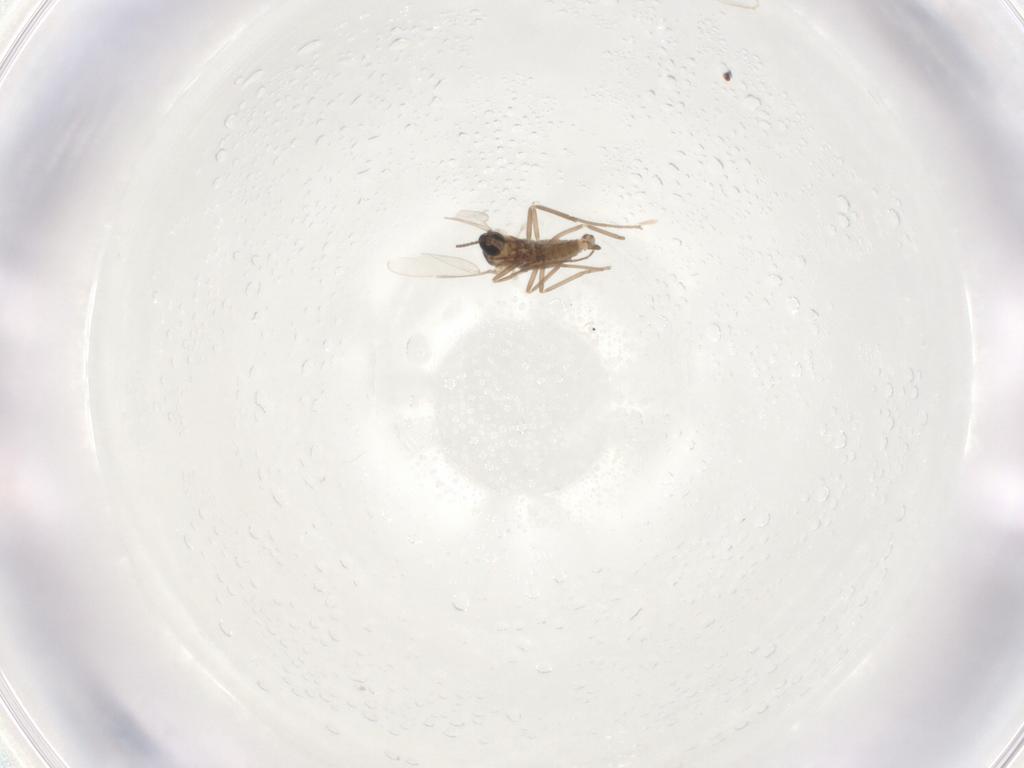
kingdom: Animalia
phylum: Arthropoda
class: Insecta
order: Diptera
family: Cecidomyiidae
